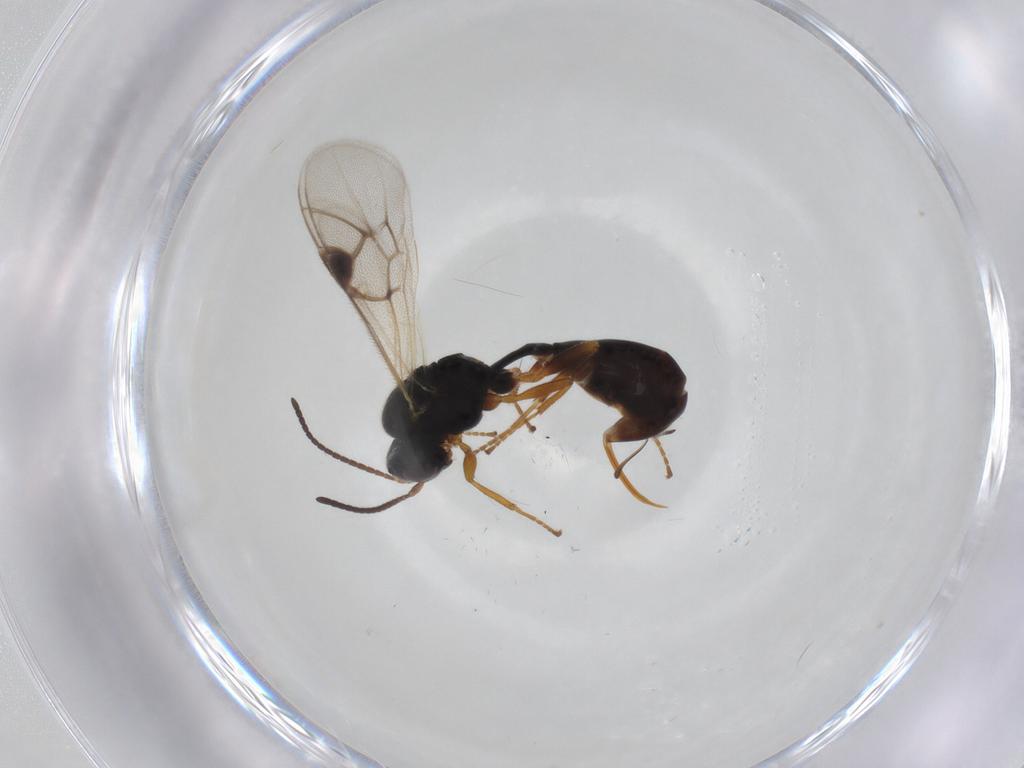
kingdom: Animalia
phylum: Arthropoda
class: Insecta
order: Hymenoptera
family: Ichneumonidae
